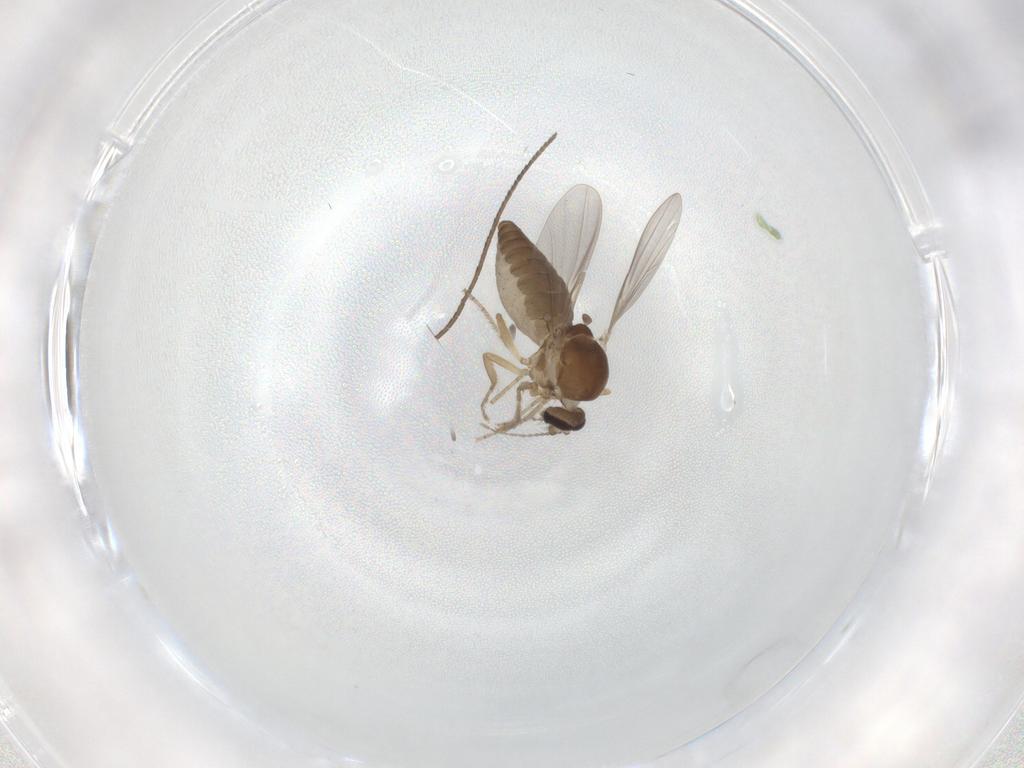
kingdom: Animalia
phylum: Arthropoda
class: Insecta
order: Diptera
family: Ceratopogonidae
